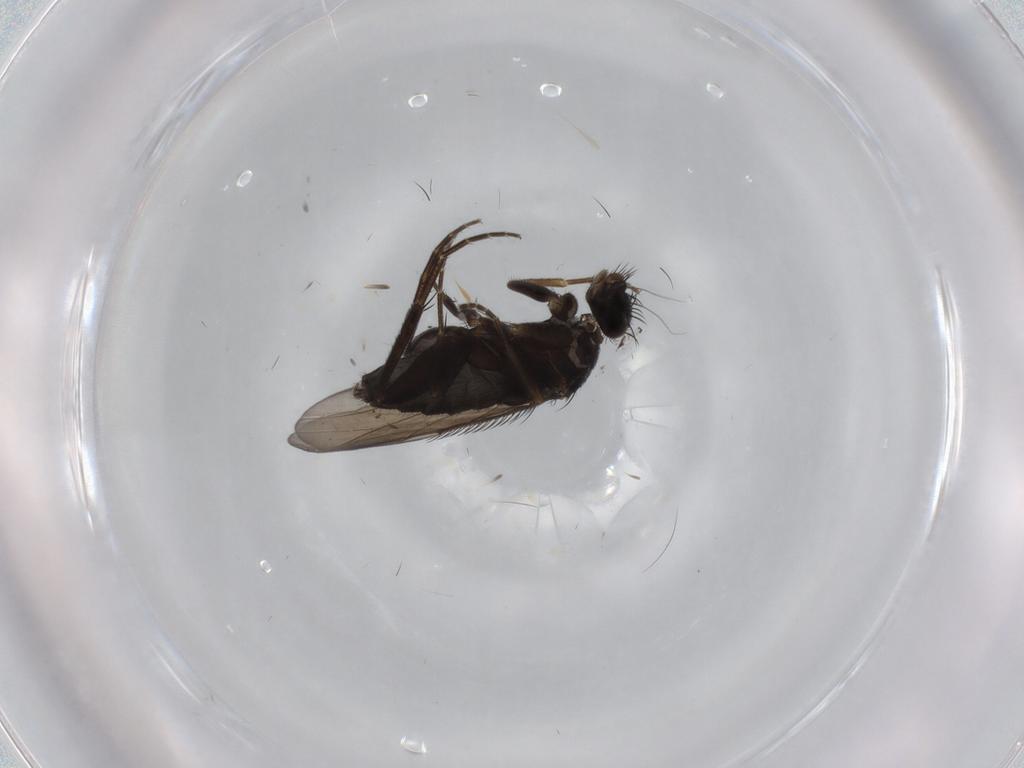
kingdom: Animalia
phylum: Arthropoda
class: Insecta
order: Diptera
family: Phoridae
